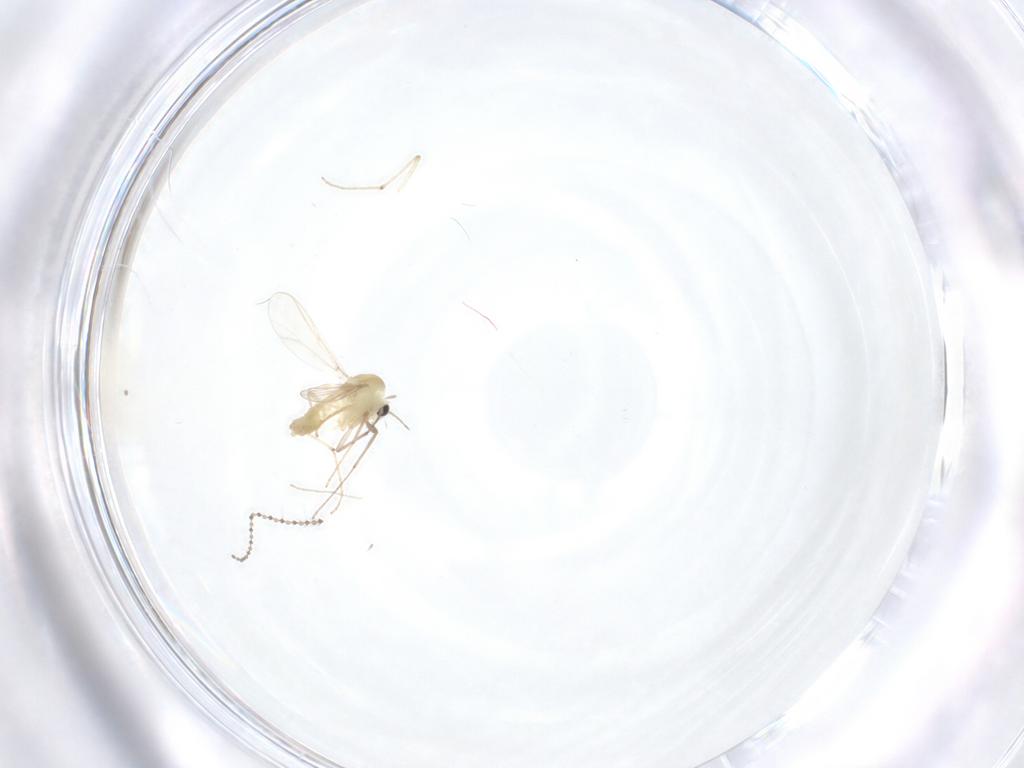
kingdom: Animalia
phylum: Arthropoda
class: Insecta
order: Diptera
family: Chironomidae
